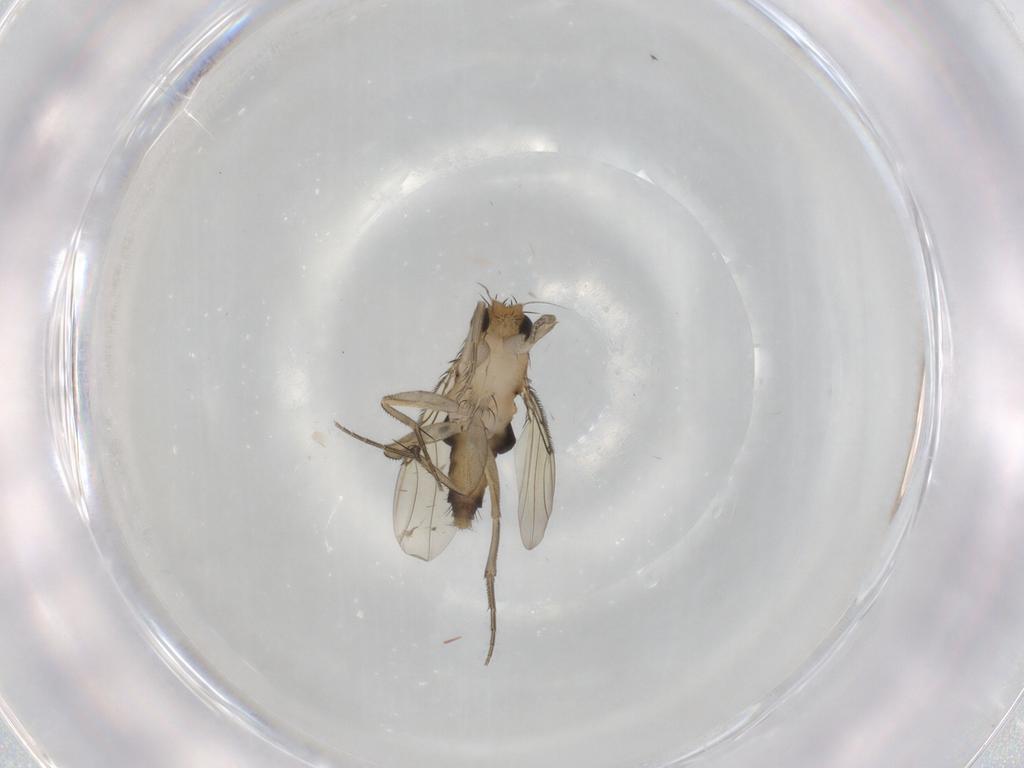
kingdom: Animalia
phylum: Arthropoda
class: Insecta
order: Diptera
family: Phoridae
